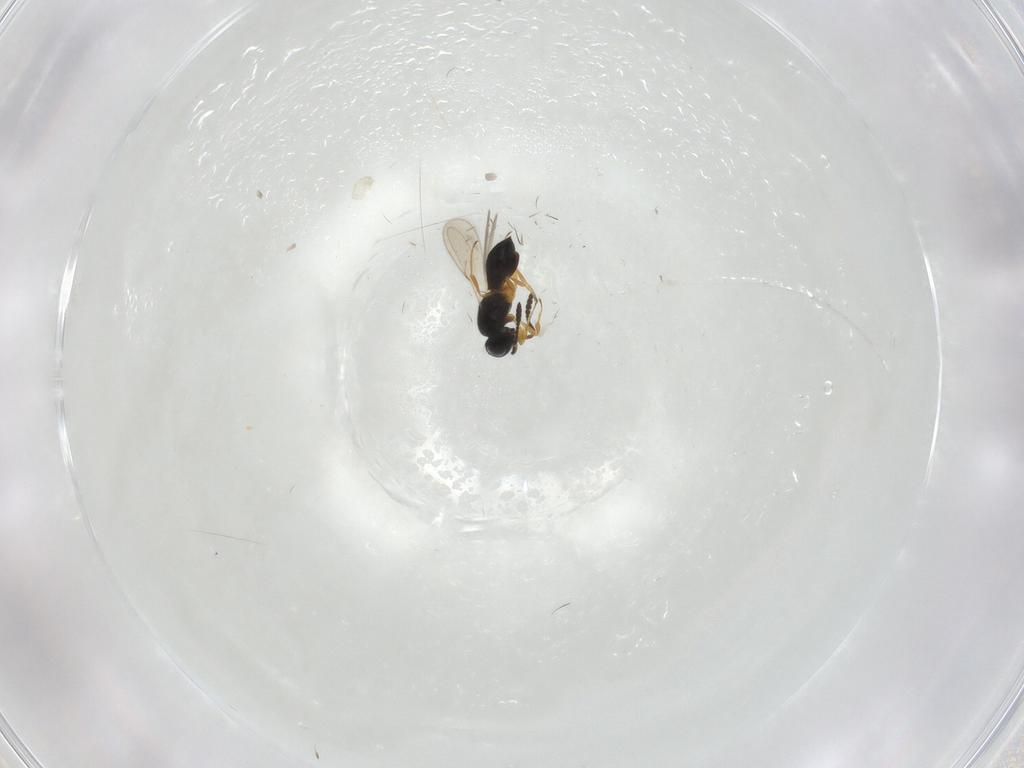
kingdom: Animalia
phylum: Arthropoda
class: Insecta
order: Hymenoptera
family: Scelionidae
